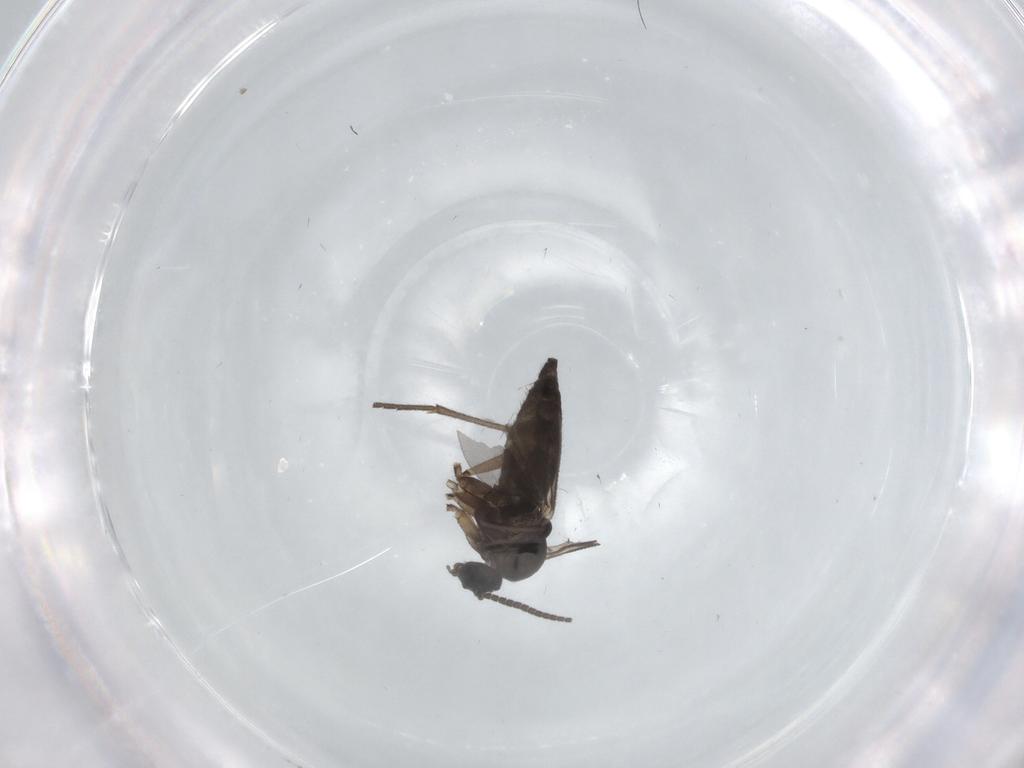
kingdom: Animalia
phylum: Arthropoda
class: Insecta
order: Diptera
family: Sciaridae
